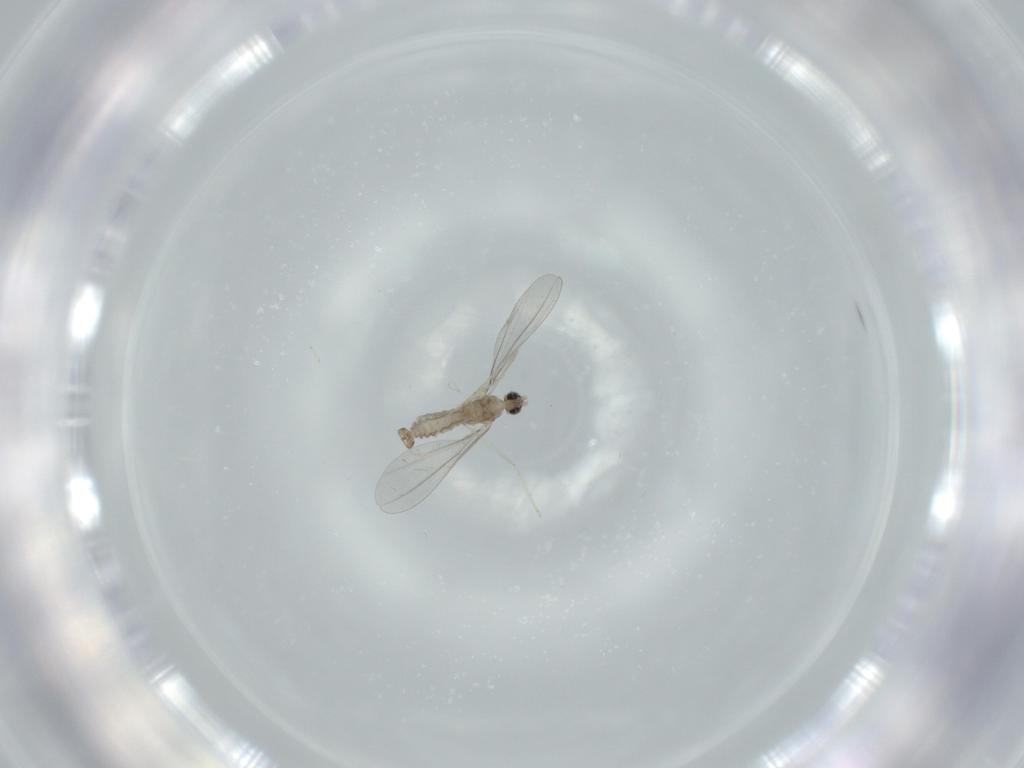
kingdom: Animalia
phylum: Arthropoda
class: Insecta
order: Diptera
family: Cecidomyiidae
